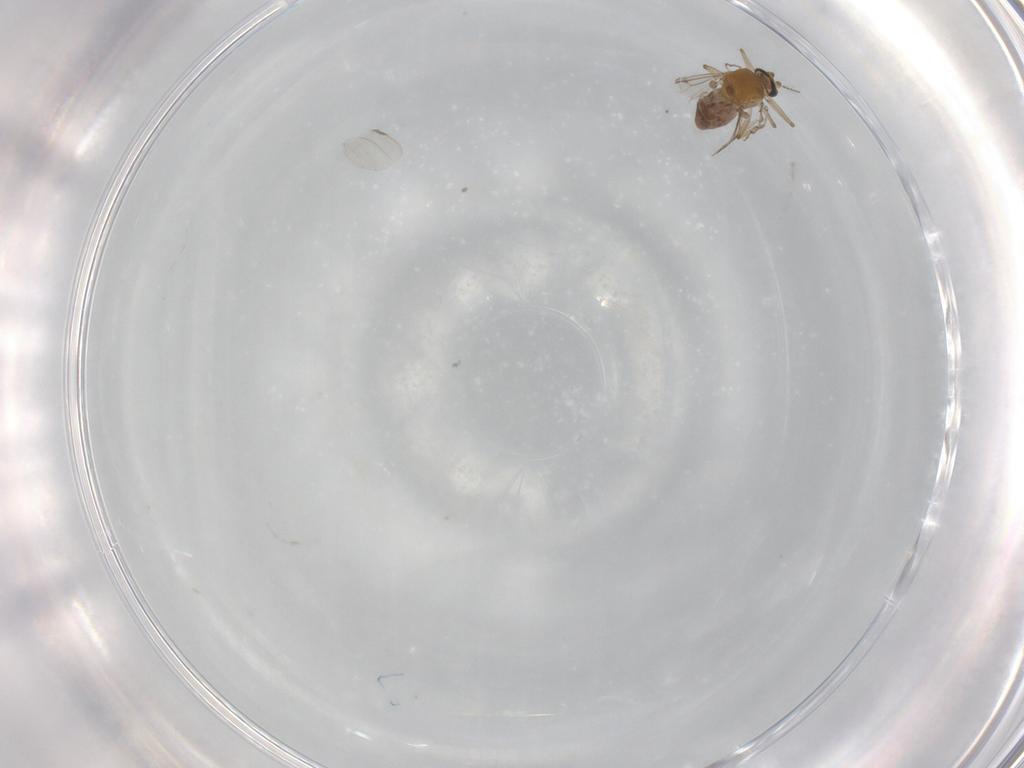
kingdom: Animalia
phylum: Arthropoda
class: Insecta
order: Diptera
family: Ceratopogonidae
